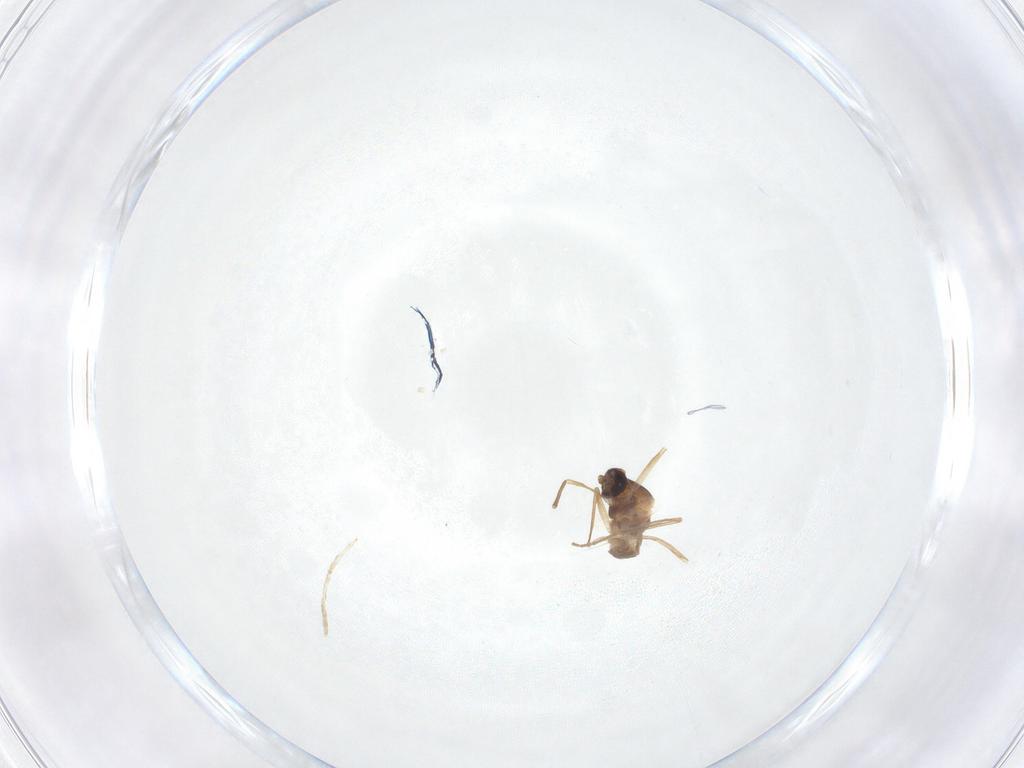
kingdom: Animalia
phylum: Arthropoda
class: Insecta
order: Diptera
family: Cecidomyiidae
